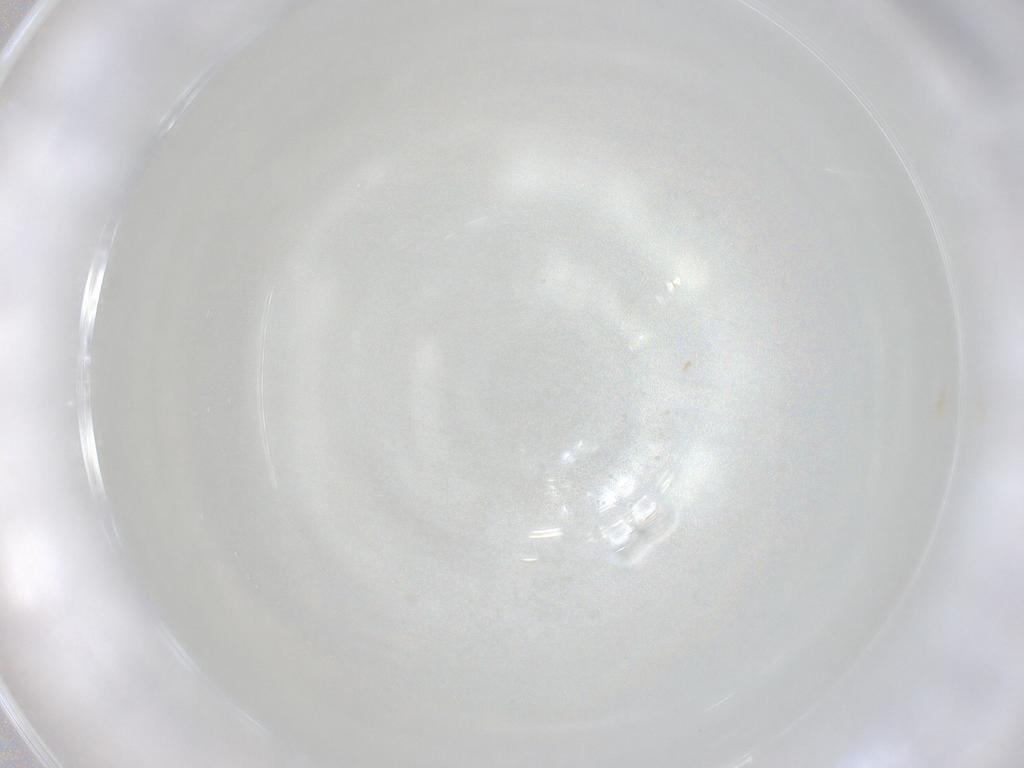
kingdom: Animalia
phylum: Arthropoda
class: Arachnida
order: Trombidiformes
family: Eupodidae
